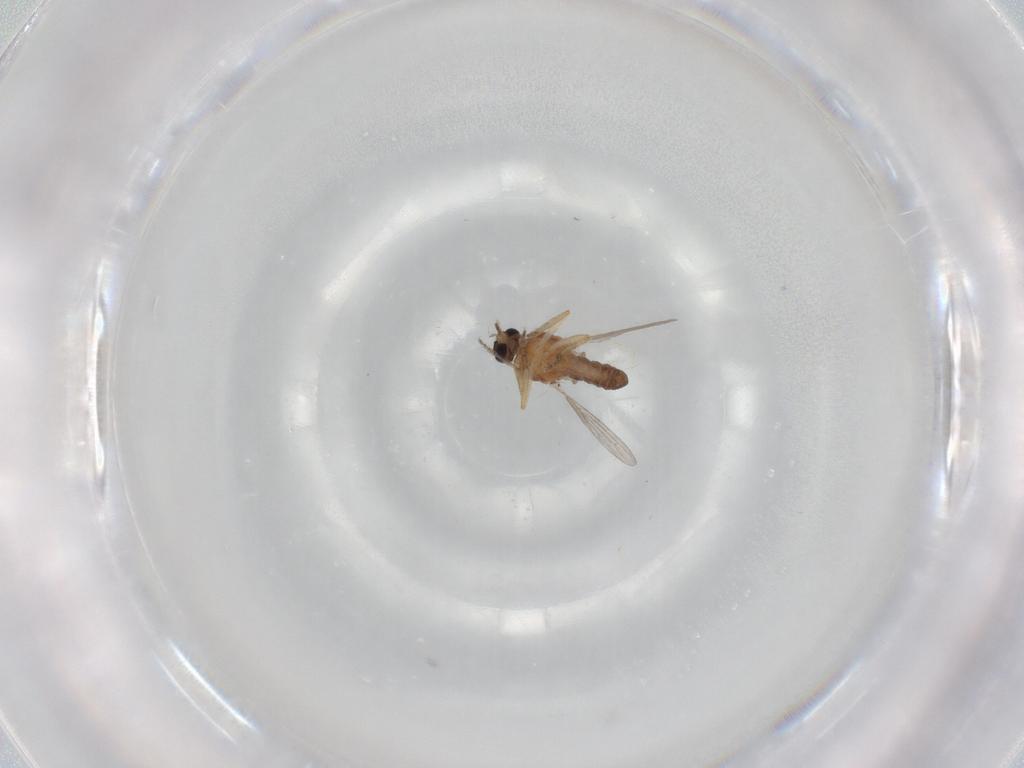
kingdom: Animalia
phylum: Arthropoda
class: Insecta
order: Diptera
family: Ceratopogonidae
